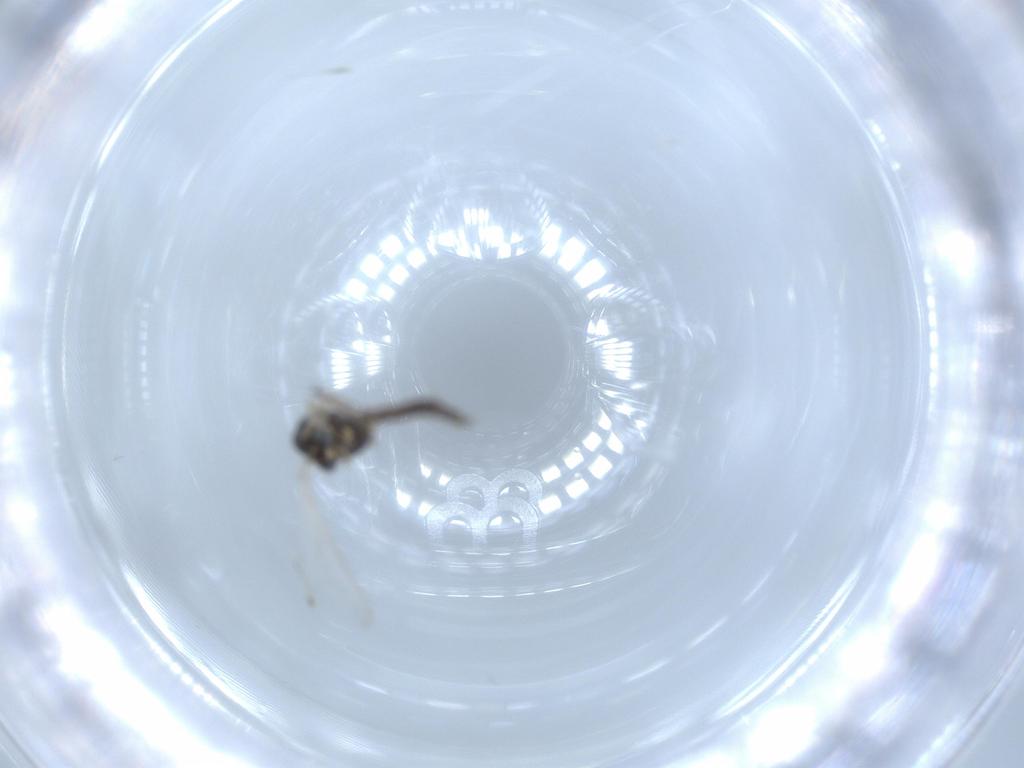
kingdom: Animalia
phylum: Arthropoda
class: Insecta
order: Diptera
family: Chironomidae
